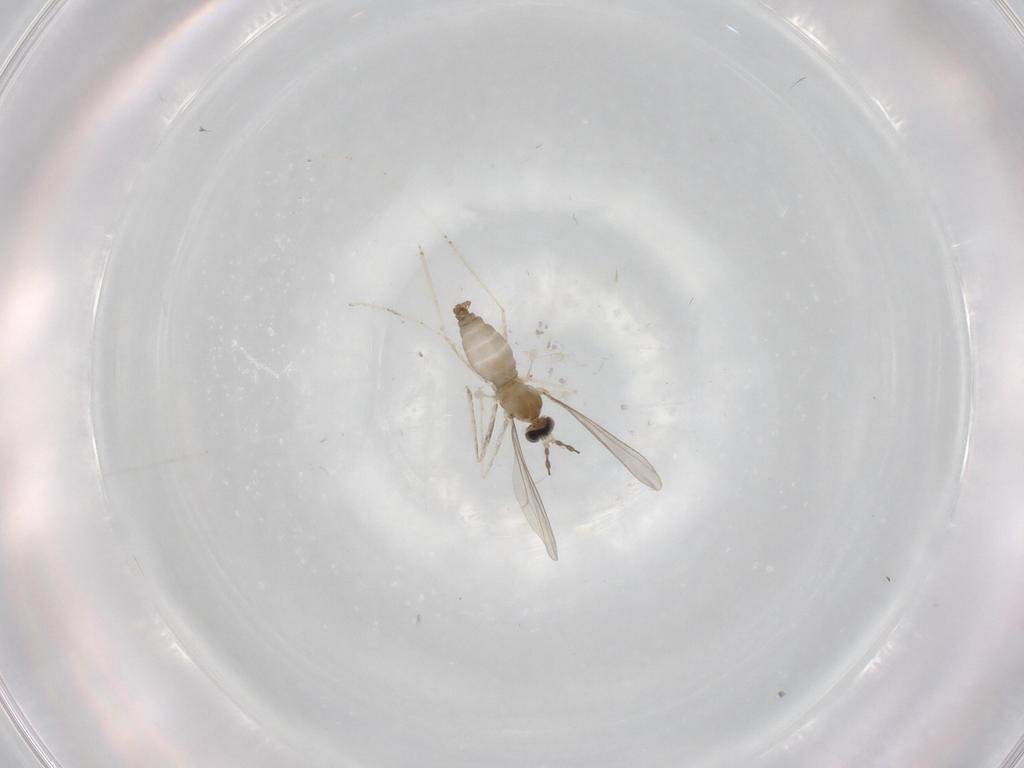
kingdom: Animalia
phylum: Arthropoda
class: Insecta
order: Diptera
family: Cecidomyiidae
